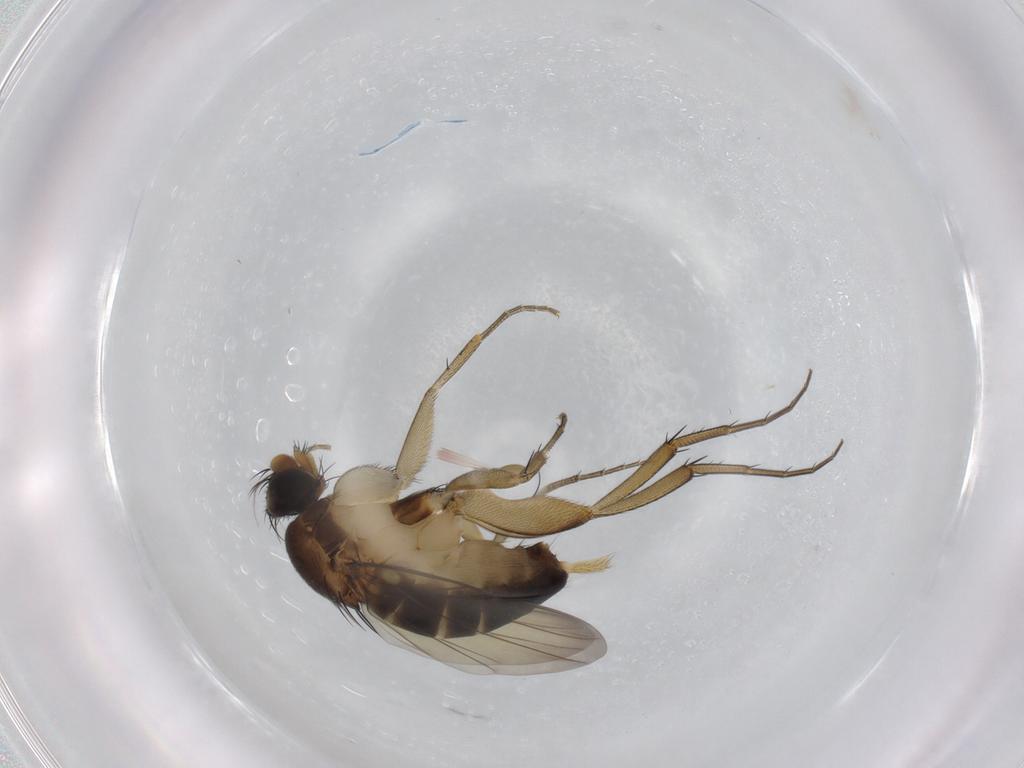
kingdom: Animalia
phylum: Arthropoda
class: Insecta
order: Diptera
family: Phoridae
